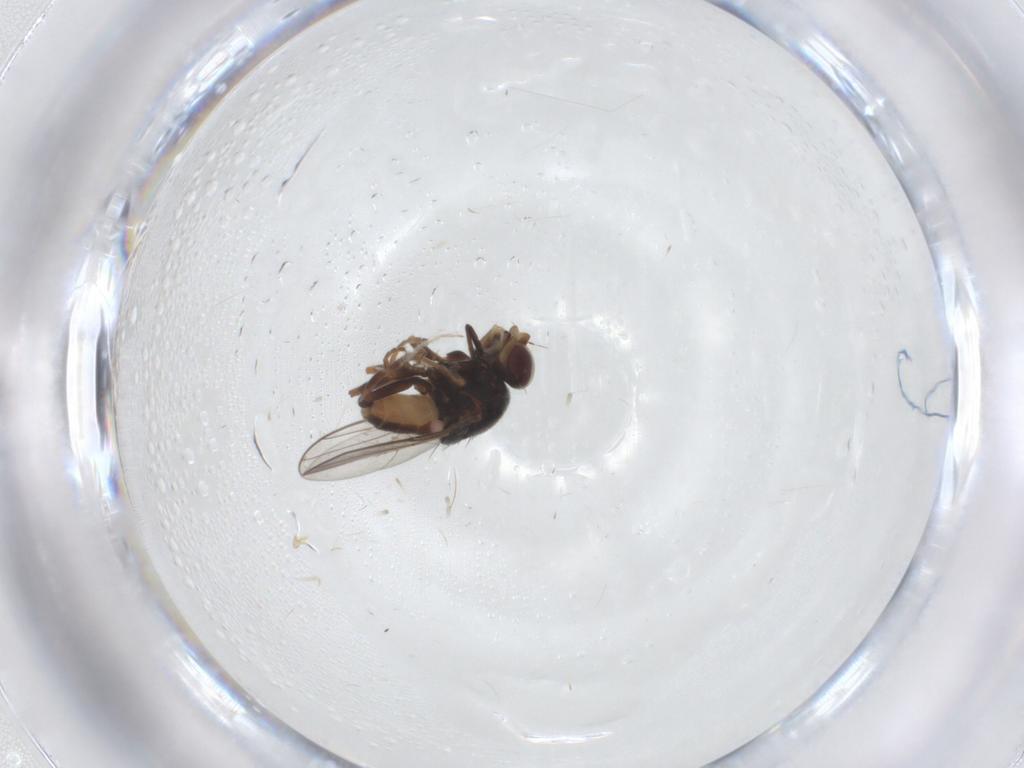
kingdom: Animalia
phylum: Arthropoda
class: Insecta
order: Diptera
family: Chloropidae
